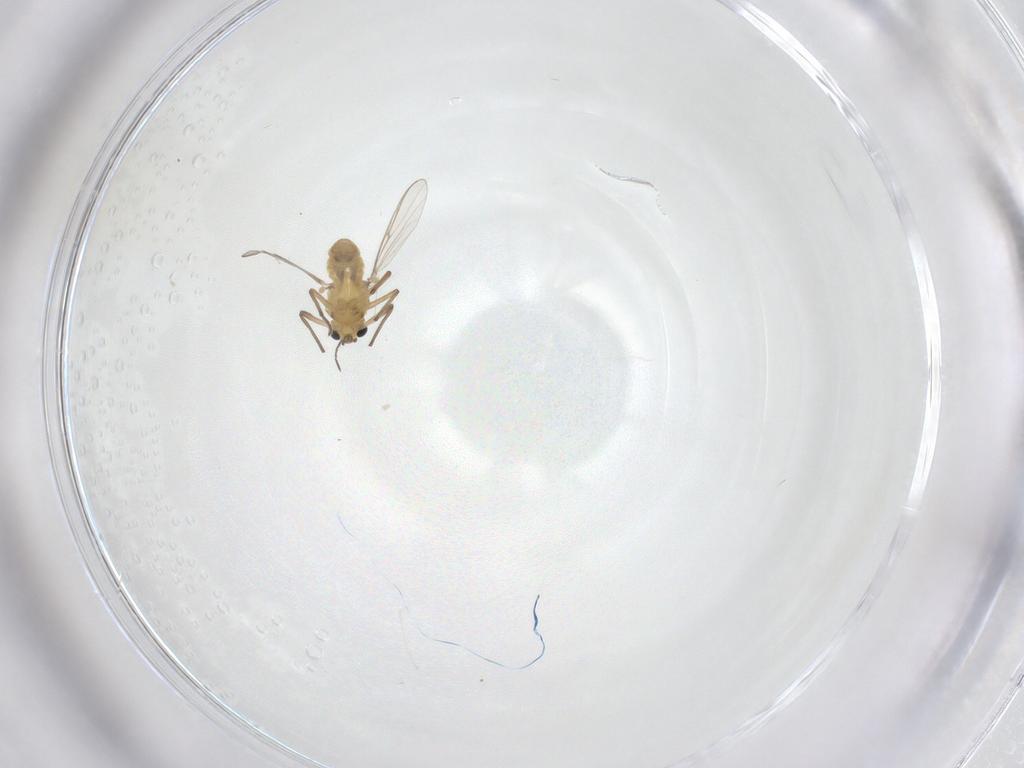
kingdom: Animalia
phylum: Arthropoda
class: Insecta
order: Diptera
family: Cecidomyiidae
